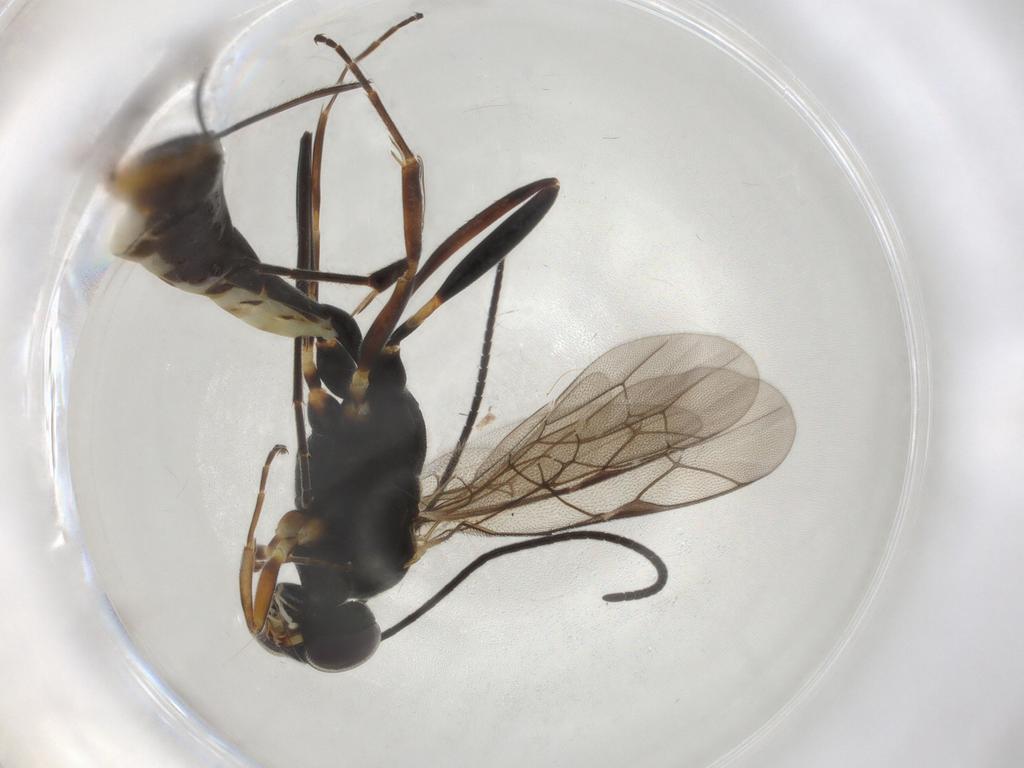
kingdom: Animalia
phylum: Arthropoda
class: Insecta
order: Hymenoptera
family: Ichneumonidae
